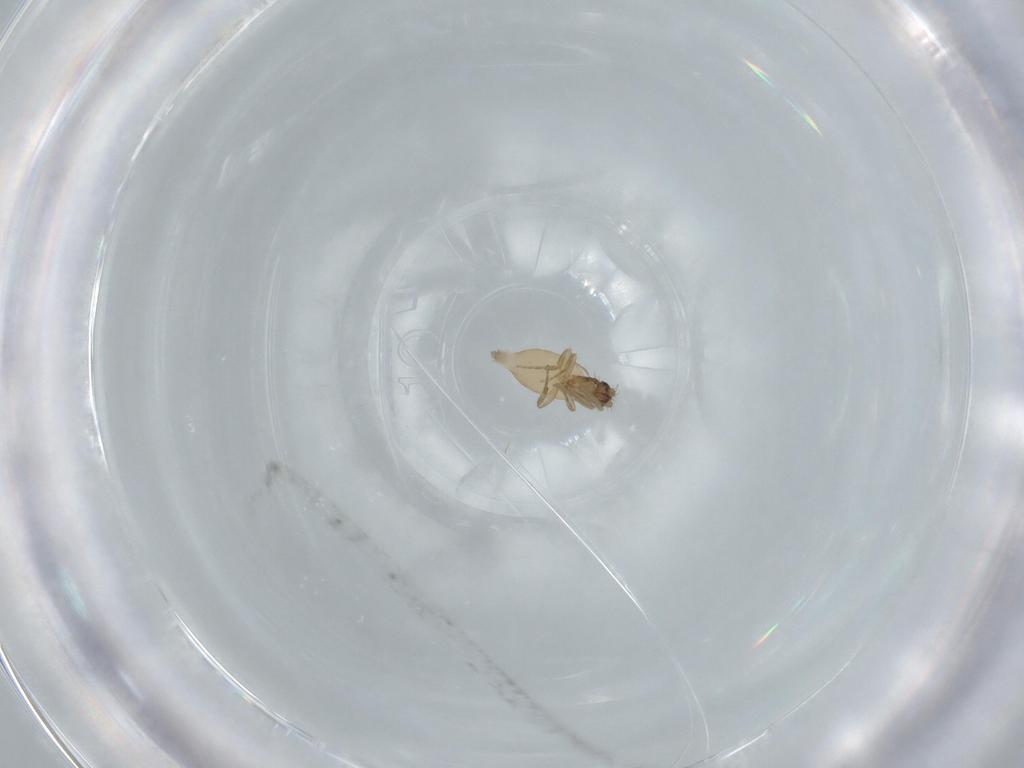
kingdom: Animalia
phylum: Arthropoda
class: Insecta
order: Diptera
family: Phoridae
